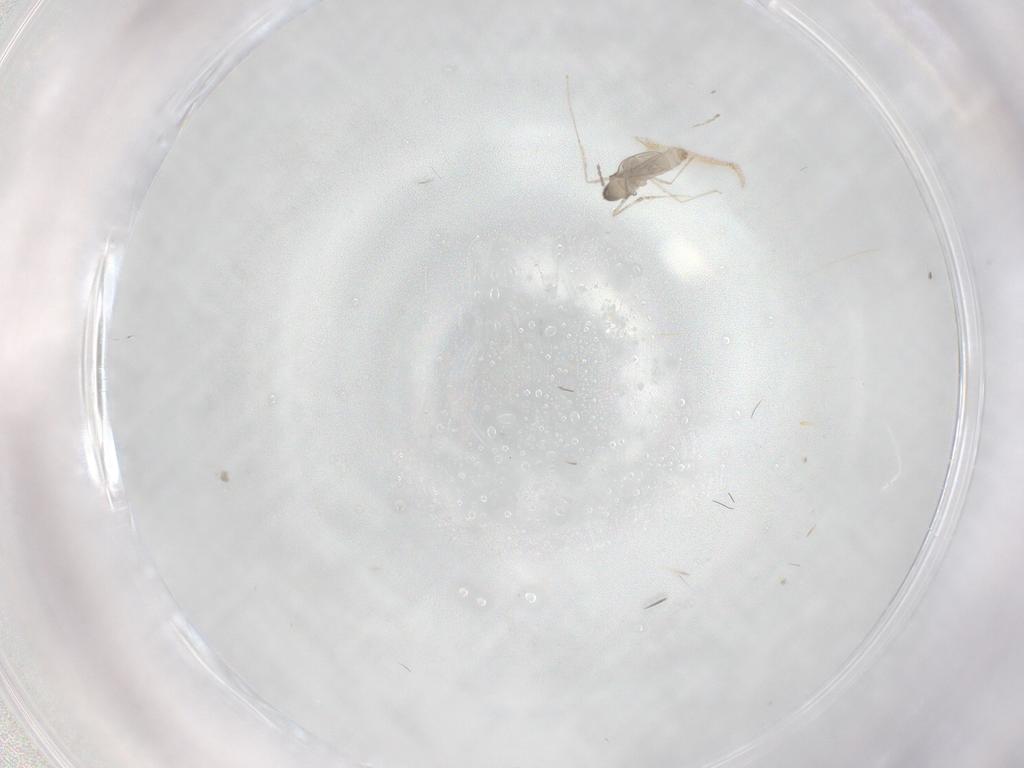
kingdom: Animalia
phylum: Arthropoda
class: Insecta
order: Diptera
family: Cecidomyiidae
